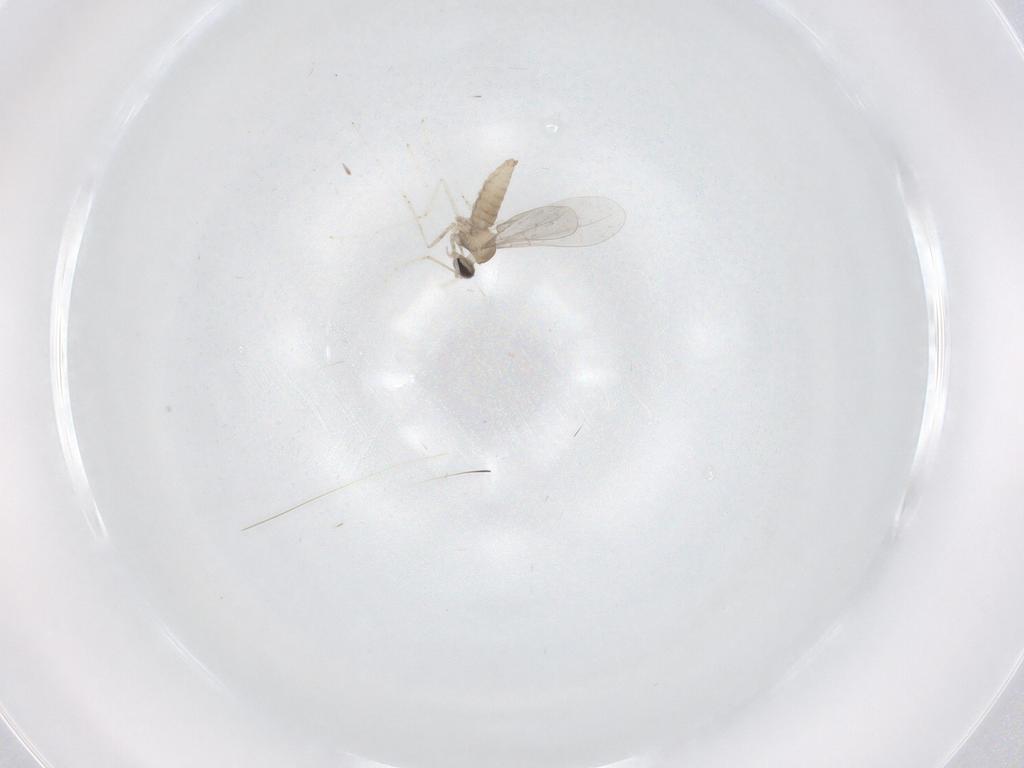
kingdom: Animalia
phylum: Arthropoda
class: Insecta
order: Diptera
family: Cecidomyiidae
